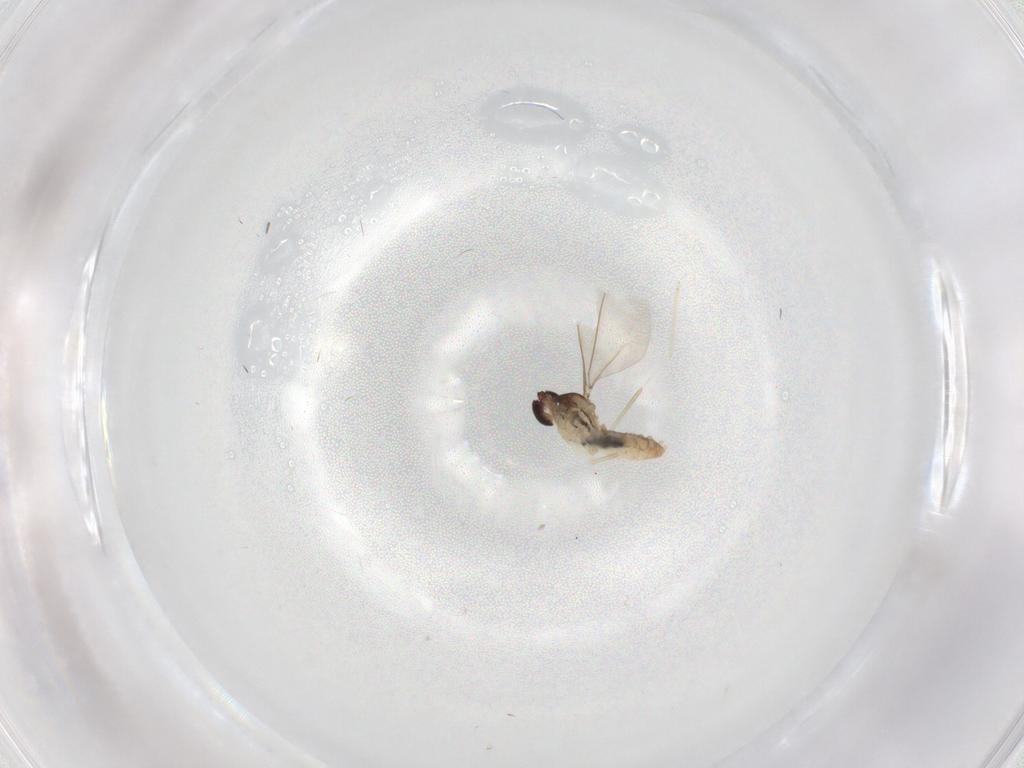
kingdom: Animalia
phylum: Arthropoda
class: Insecta
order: Diptera
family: Cecidomyiidae
